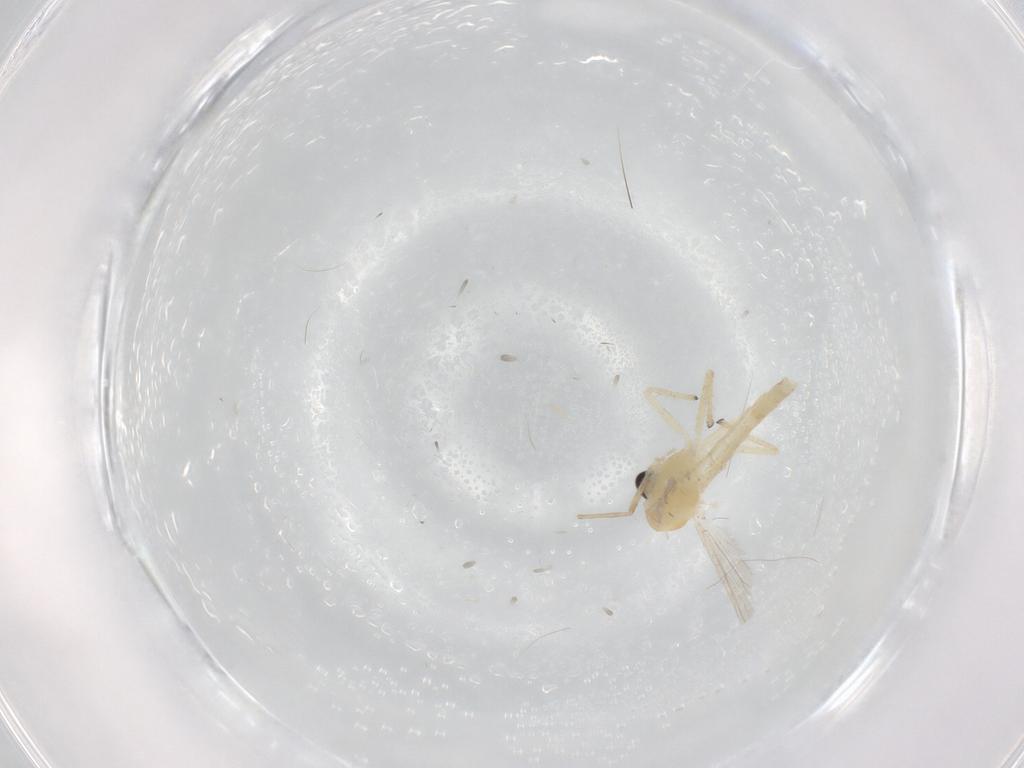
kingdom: Animalia
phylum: Arthropoda
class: Insecta
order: Diptera
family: Chironomidae
